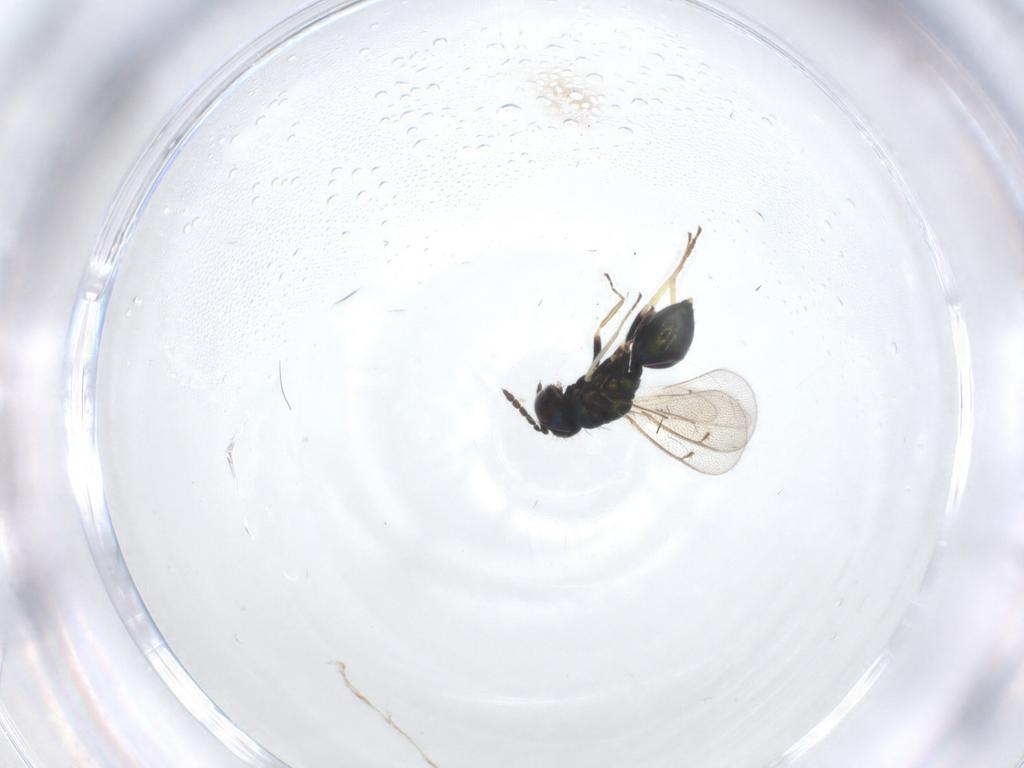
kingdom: Animalia
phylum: Arthropoda
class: Insecta
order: Hymenoptera
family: Eulophidae
